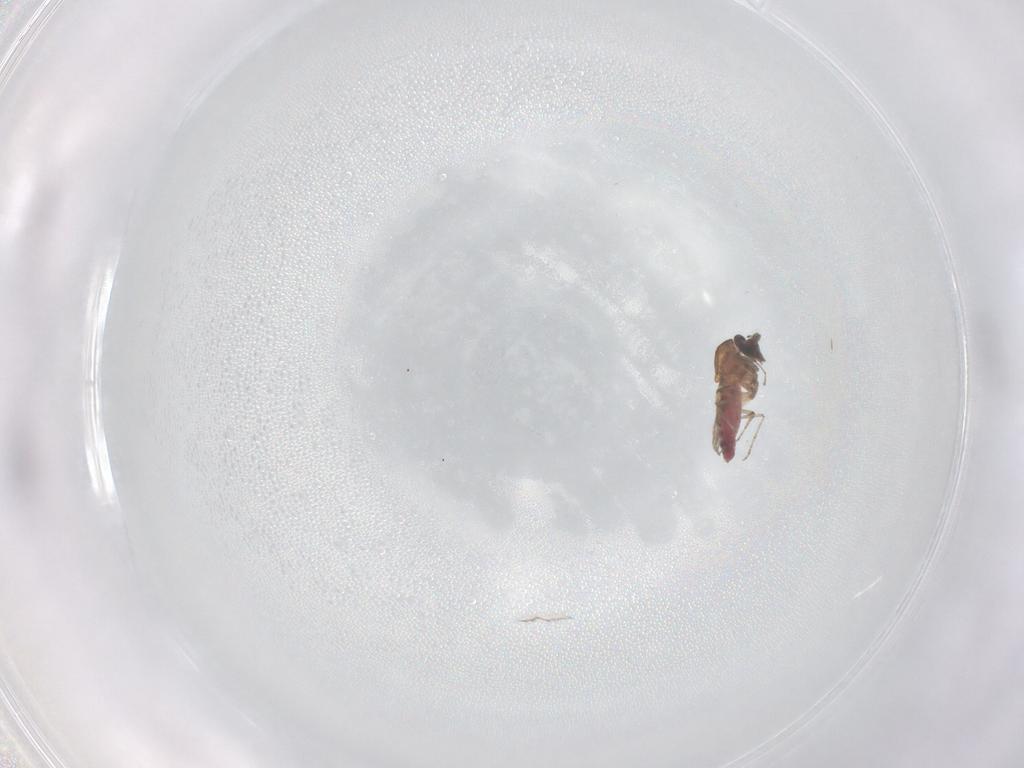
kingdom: Animalia
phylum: Arthropoda
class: Insecta
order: Diptera
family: Ceratopogonidae
